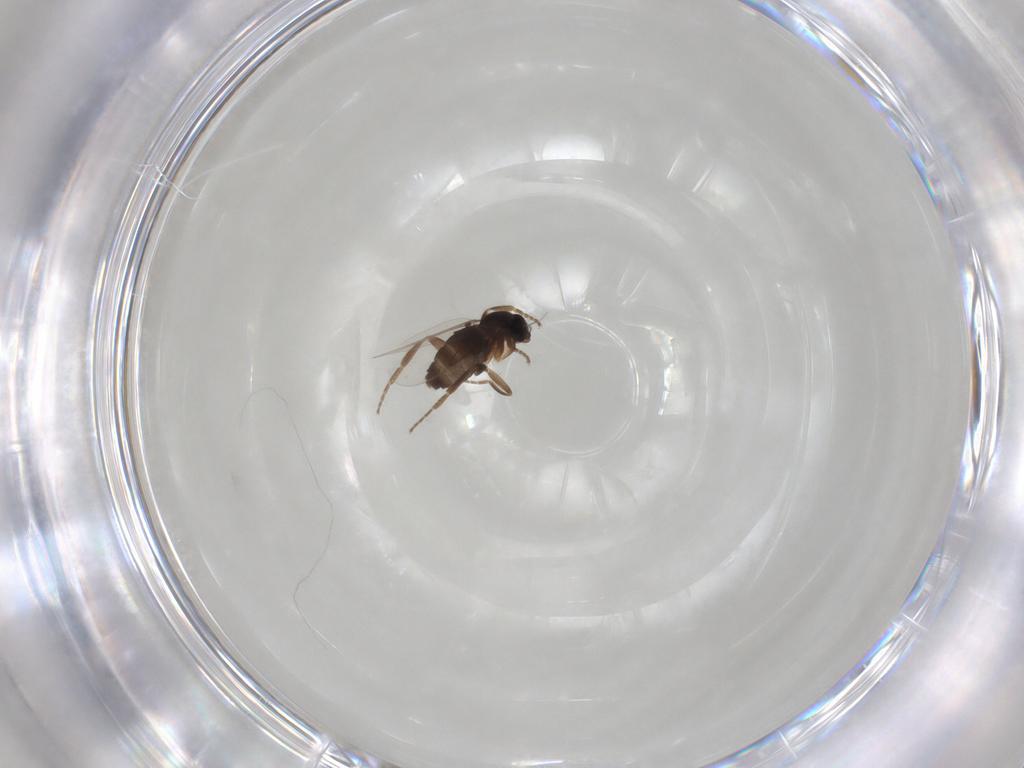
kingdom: Animalia
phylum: Arthropoda
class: Insecta
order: Diptera
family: Phoridae
